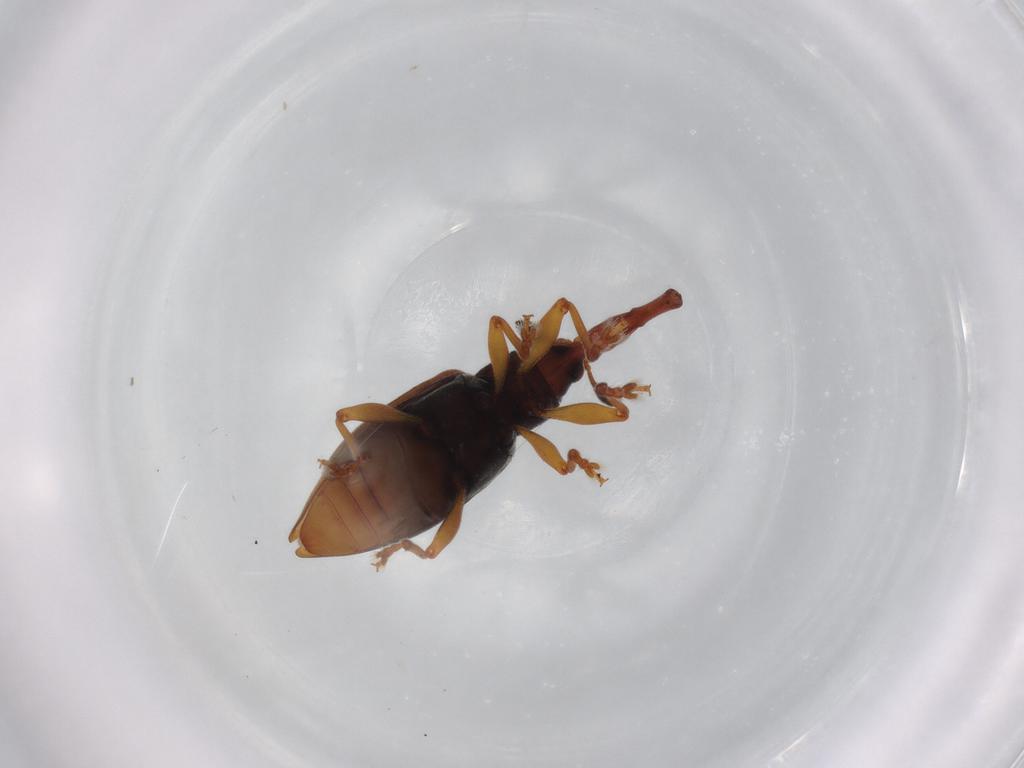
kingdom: Animalia
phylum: Arthropoda
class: Insecta
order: Coleoptera
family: Curculionidae
